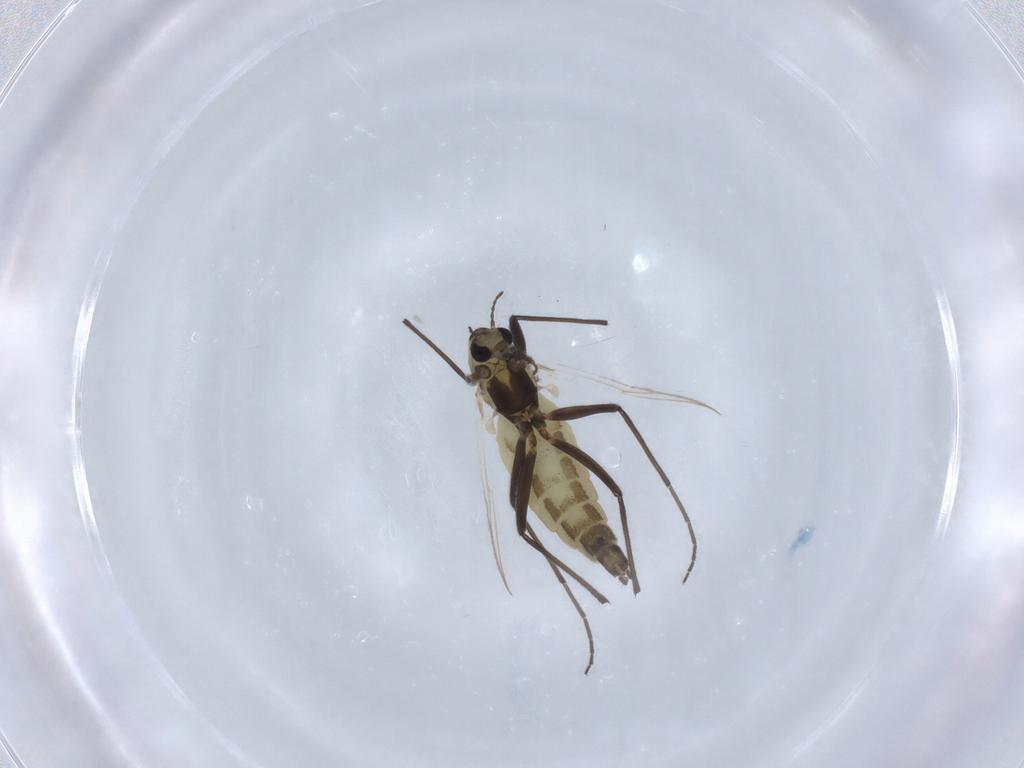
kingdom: Animalia
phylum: Arthropoda
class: Insecta
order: Diptera
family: Chironomidae
